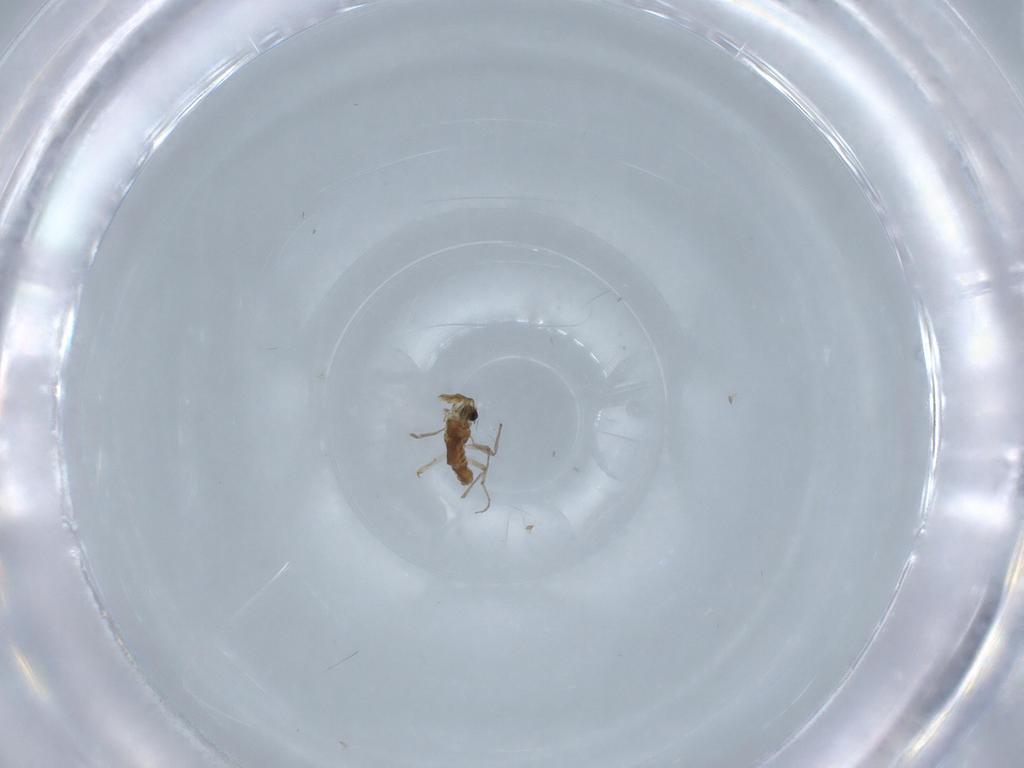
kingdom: Animalia
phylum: Arthropoda
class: Insecta
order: Diptera
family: Chironomidae
